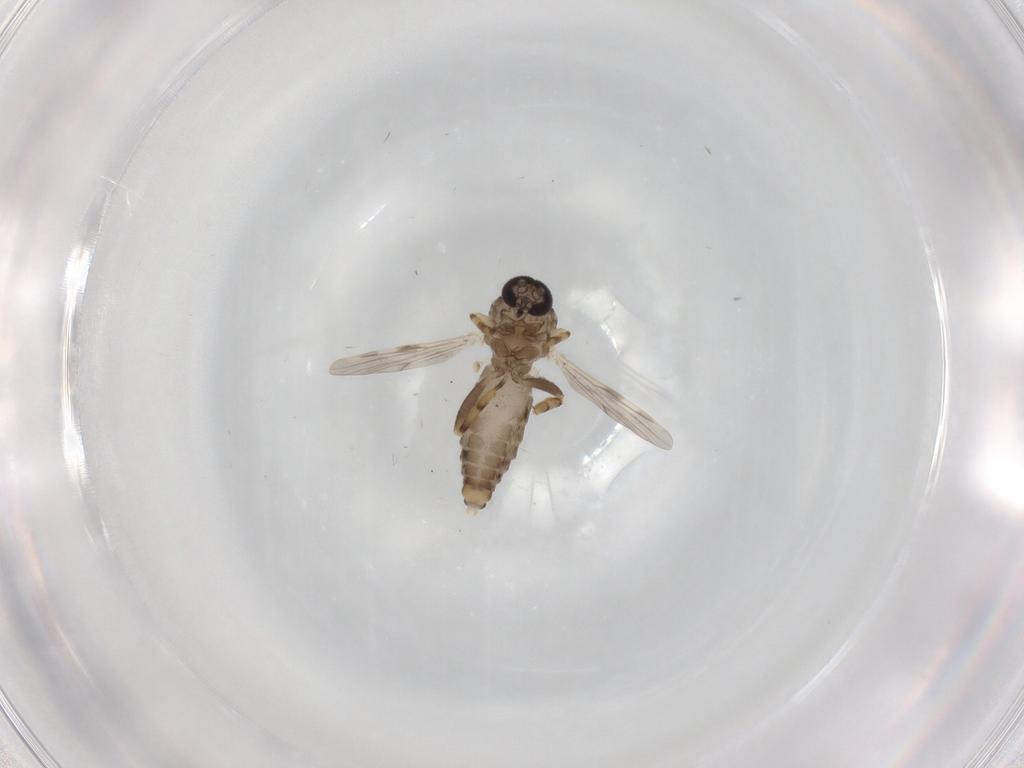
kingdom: Animalia
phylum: Arthropoda
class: Insecta
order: Diptera
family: Ceratopogonidae
